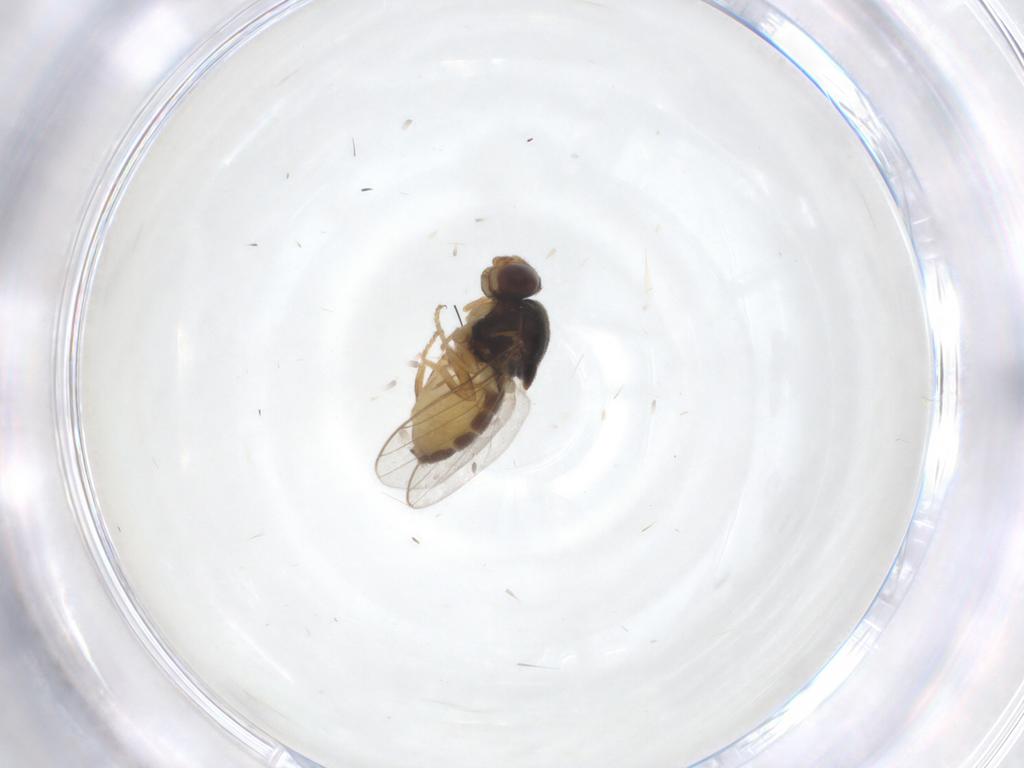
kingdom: Animalia
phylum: Arthropoda
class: Insecta
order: Diptera
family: Chloropidae
